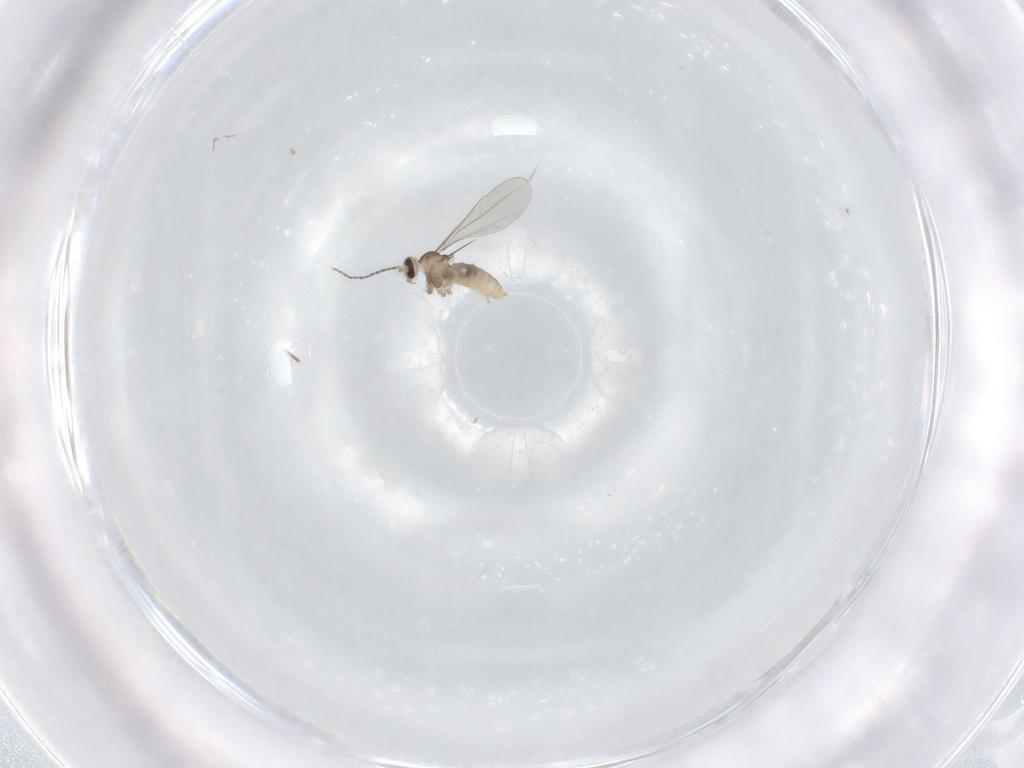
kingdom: Animalia
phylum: Arthropoda
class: Insecta
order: Diptera
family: Cecidomyiidae
